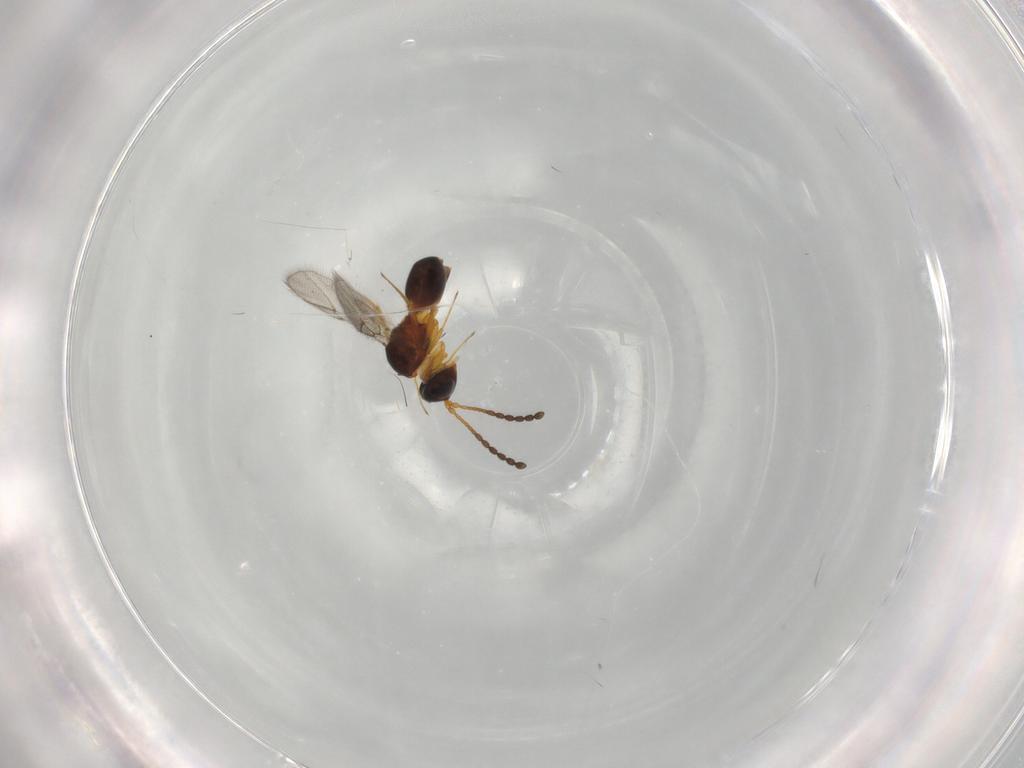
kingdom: Animalia
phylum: Arthropoda
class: Insecta
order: Hymenoptera
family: Figitidae
